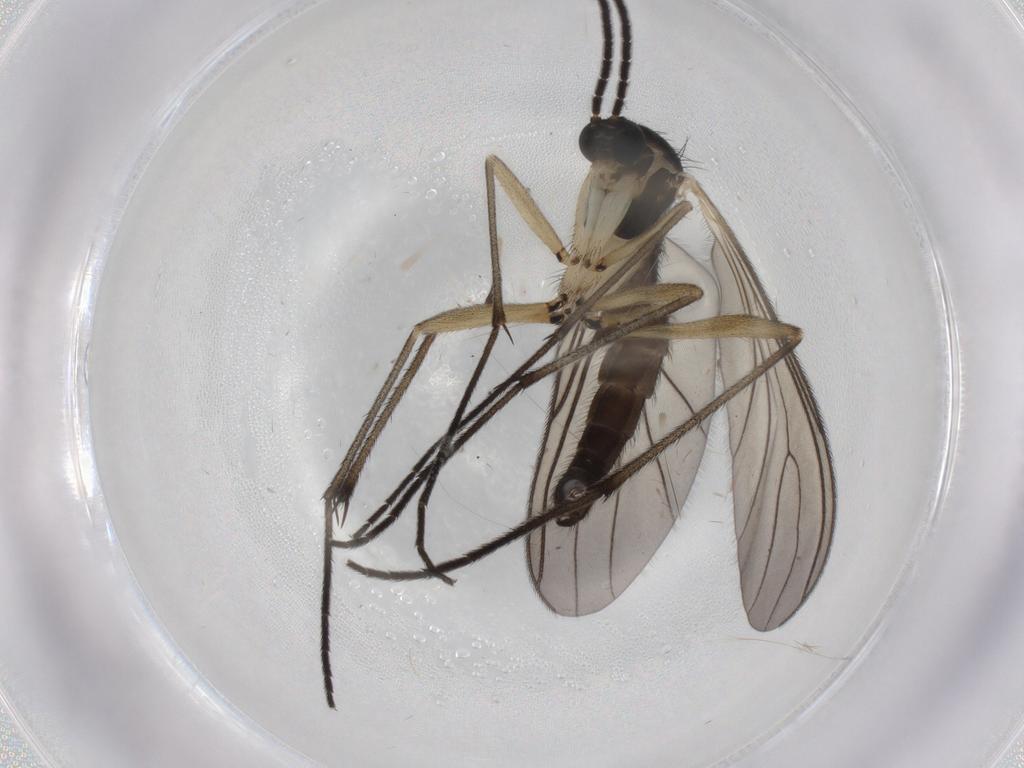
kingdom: Animalia
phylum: Arthropoda
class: Insecta
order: Diptera
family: Sciaridae
